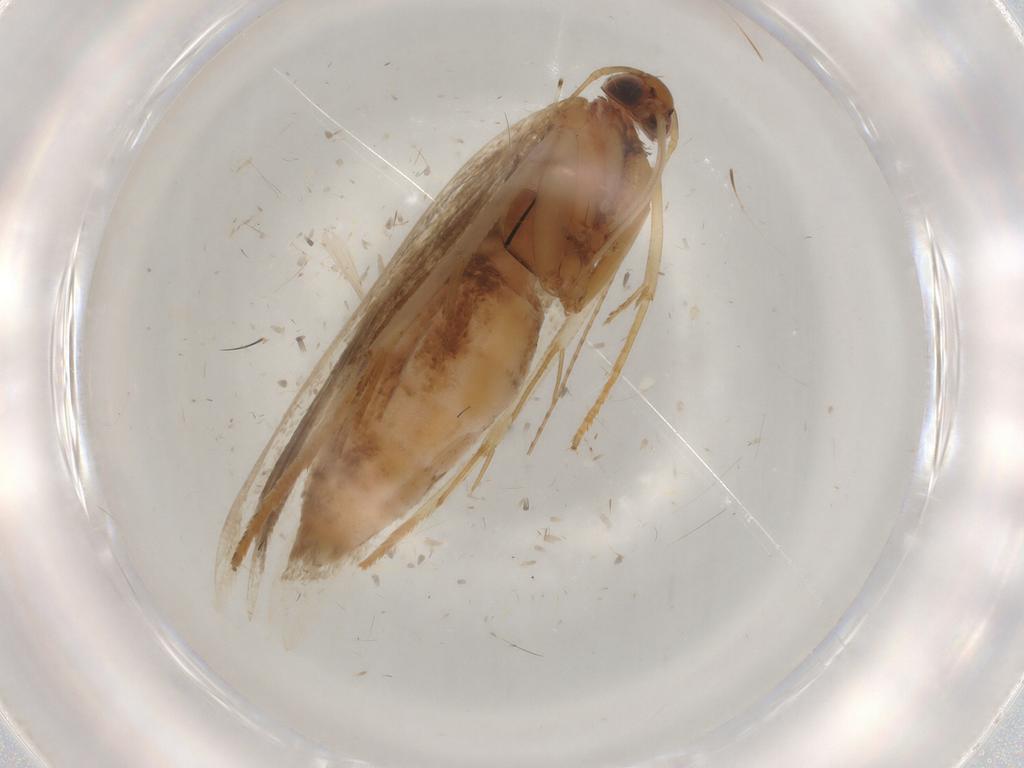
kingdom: Animalia
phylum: Arthropoda
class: Insecta
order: Lepidoptera
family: Gelechiidae
